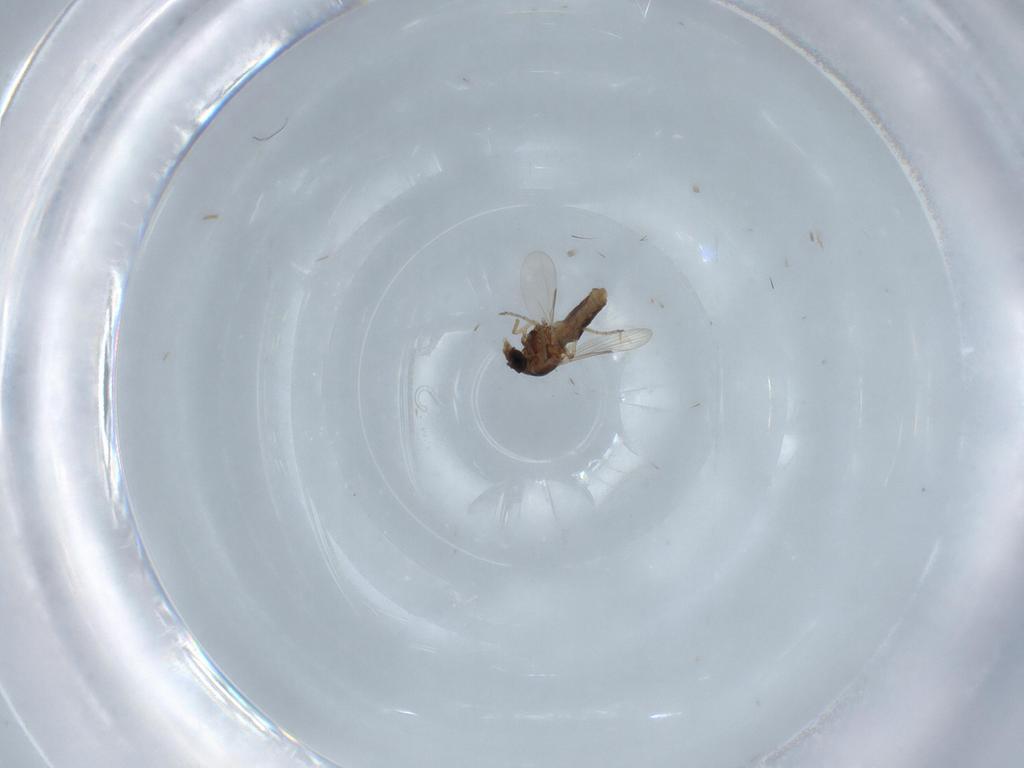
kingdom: Animalia
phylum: Arthropoda
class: Insecta
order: Diptera
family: Ceratopogonidae
